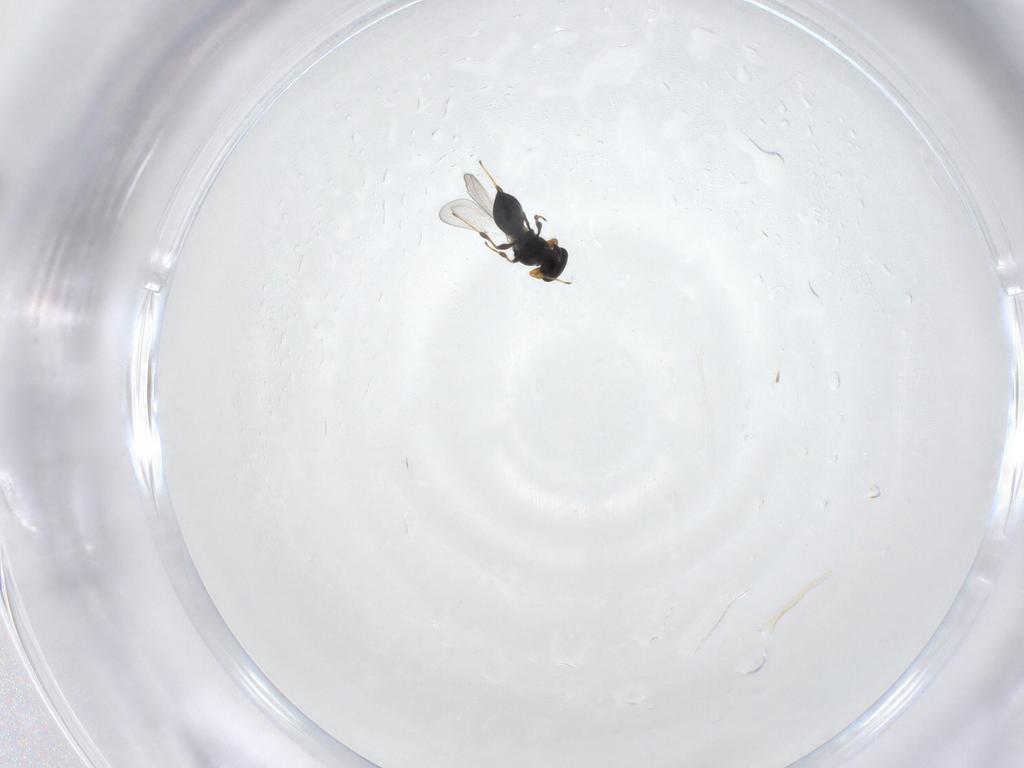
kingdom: Animalia
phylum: Arthropoda
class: Insecta
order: Hymenoptera
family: Platygastridae
